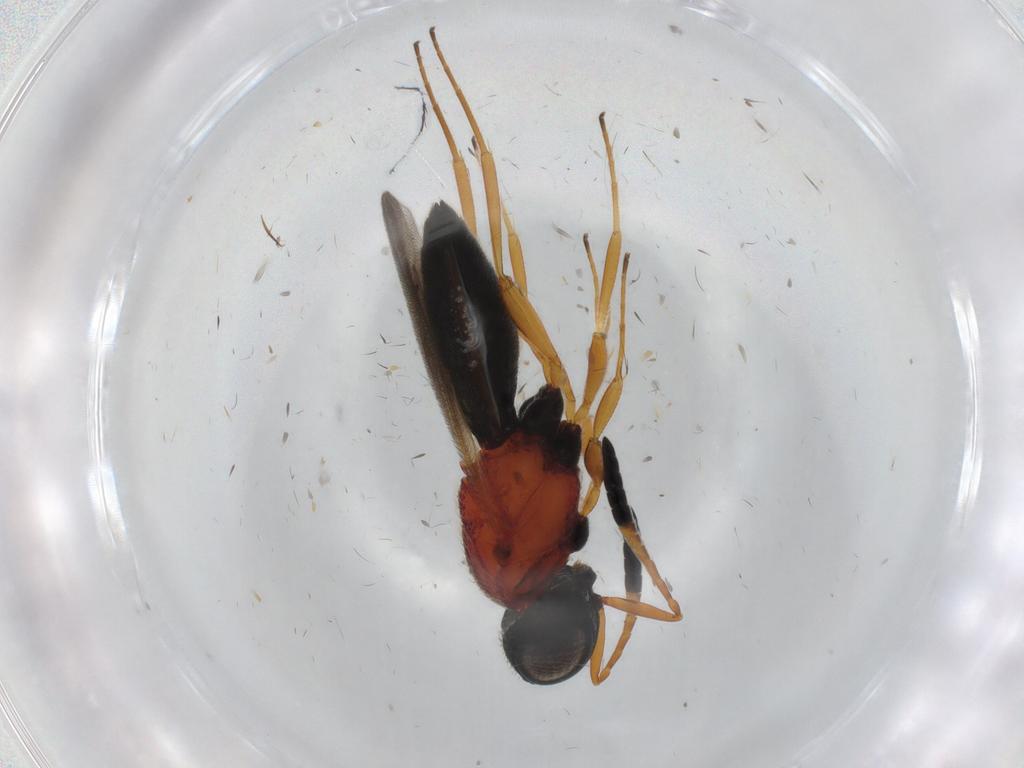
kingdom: Animalia
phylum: Arthropoda
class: Insecta
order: Hymenoptera
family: Scelionidae
